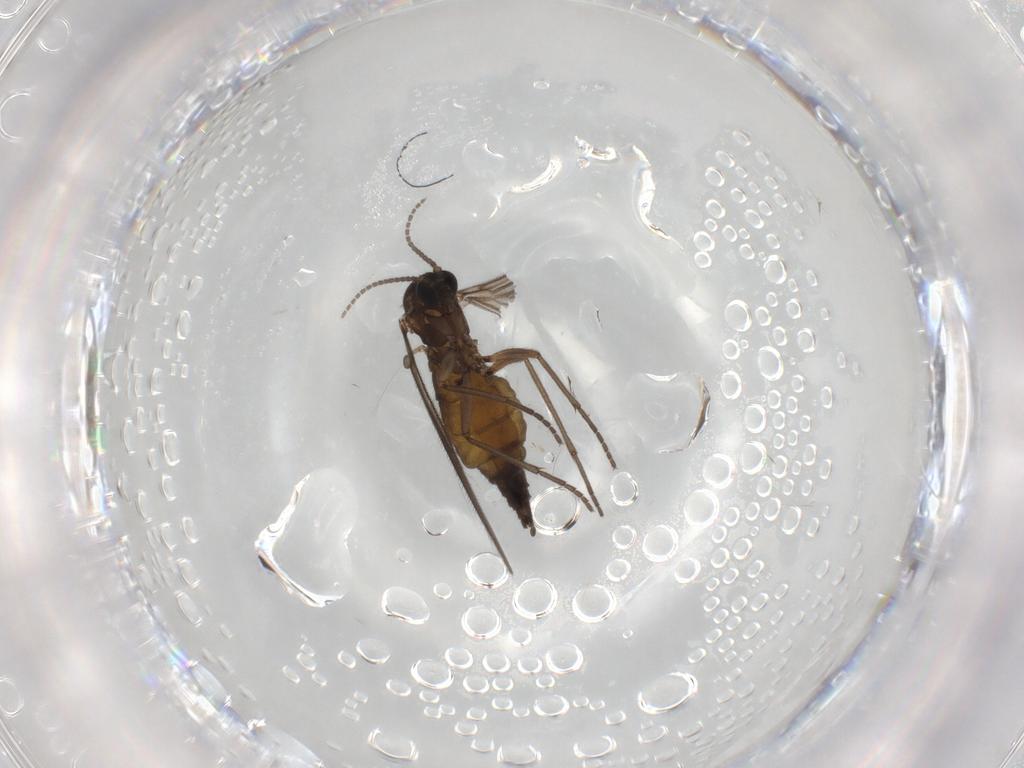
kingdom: Animalia
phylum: Arthropoda
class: Insecta
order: Diptera
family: Sciaridae
